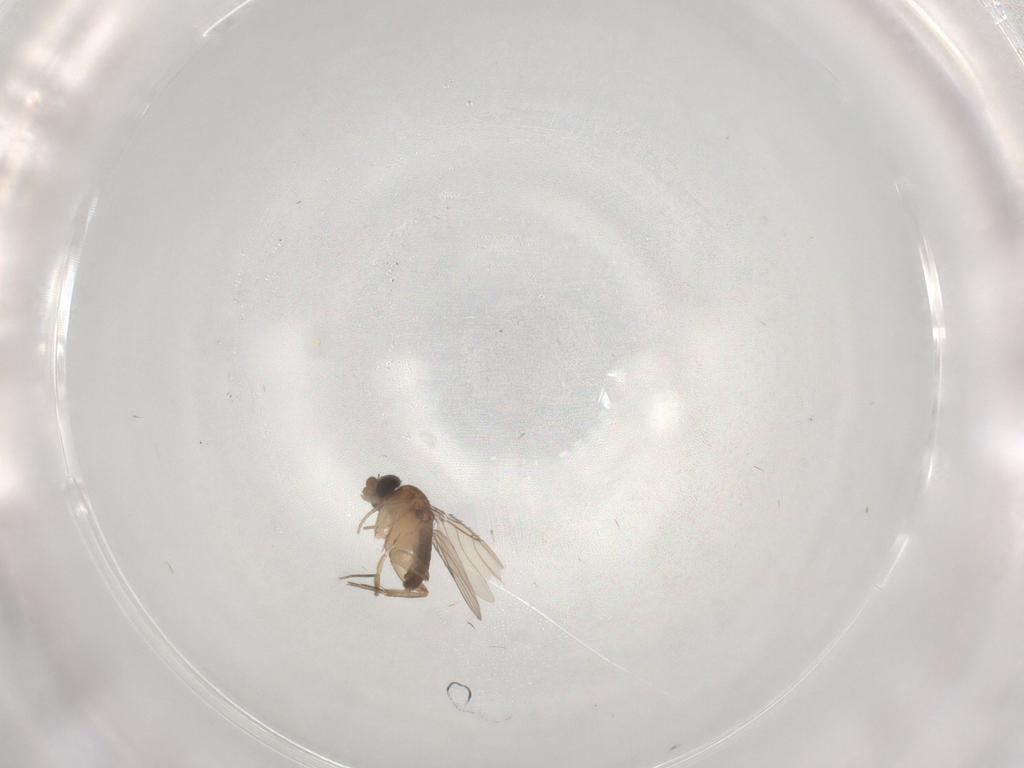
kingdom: Animalia
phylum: Arthropoda
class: Insecta
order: Diptera
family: Phoridae
